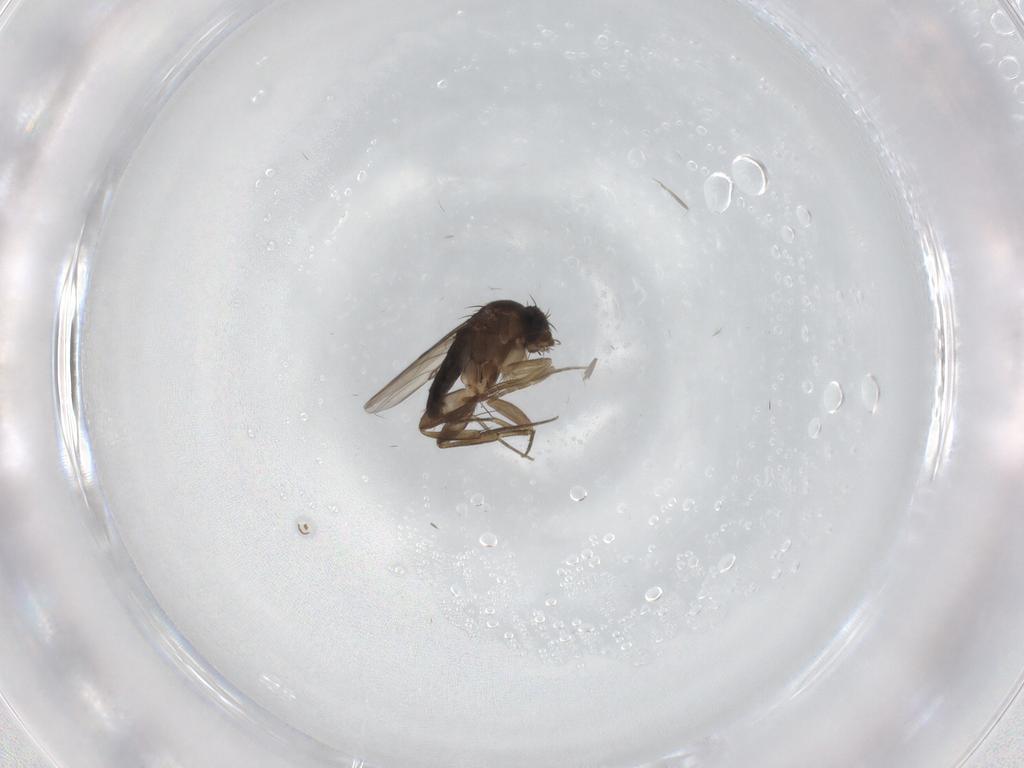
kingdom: Animalia
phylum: Arthropoda
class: Insecta
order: Diptera
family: Phoridae
